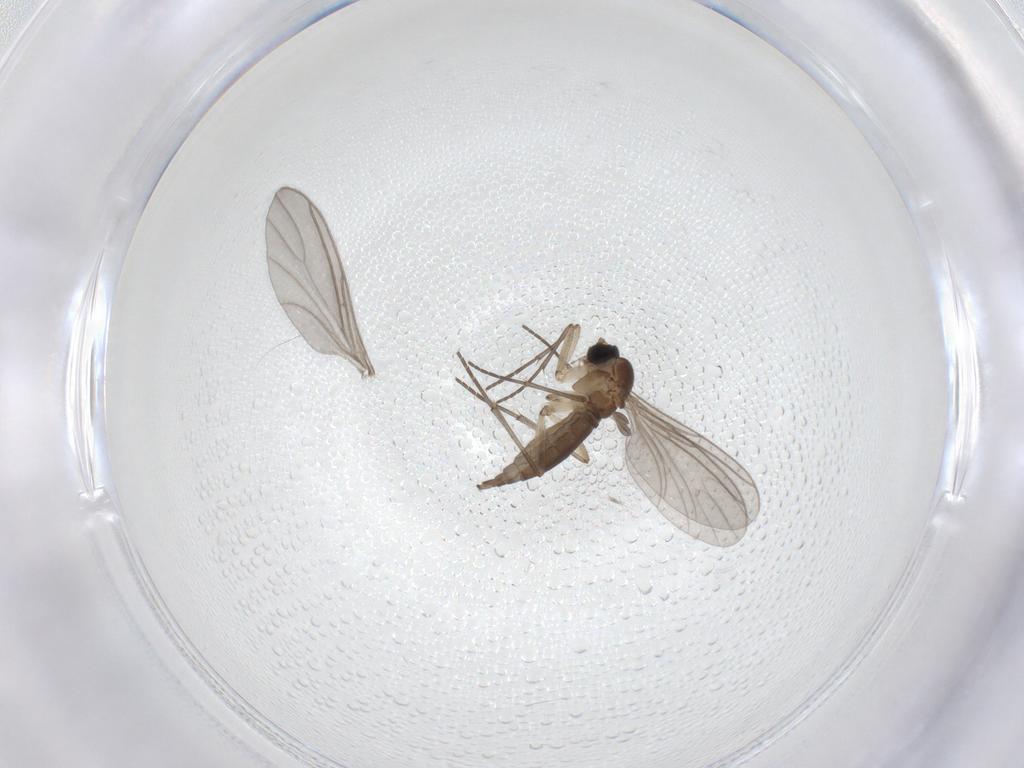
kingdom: Animalia
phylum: Arthropoda
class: Insecta
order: Diptera
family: Sciaridae
